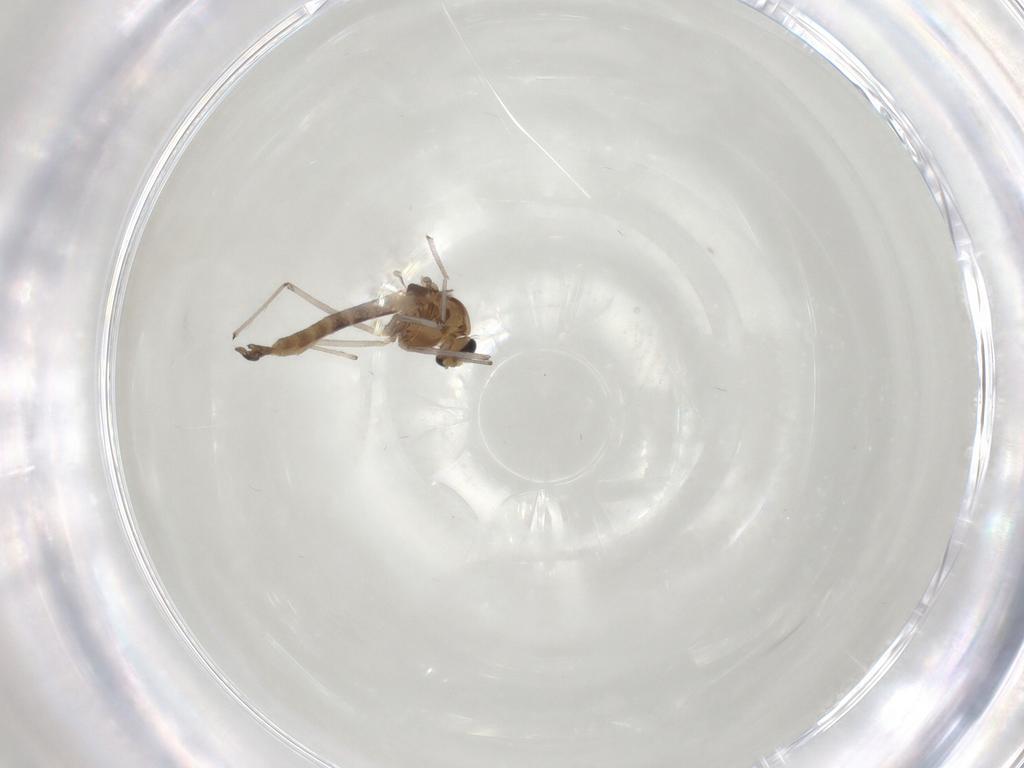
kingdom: Animalia
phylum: Arthropoda
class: Insecta
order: Diptera
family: Chironomidae
